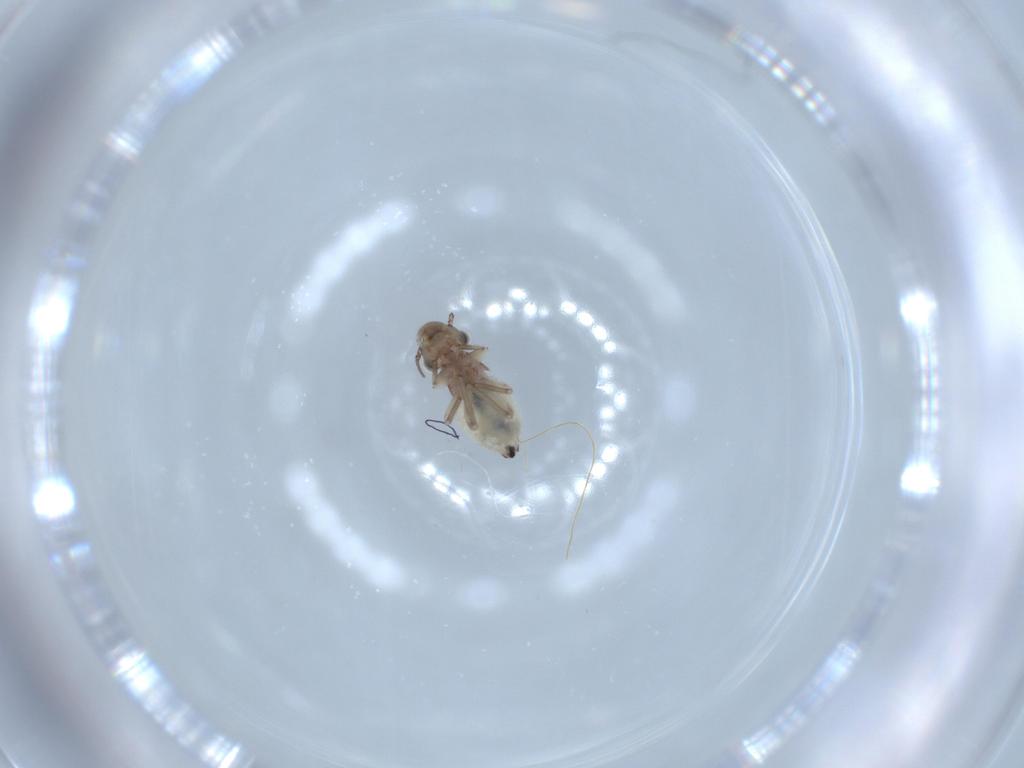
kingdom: Animalia
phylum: Arthropoda
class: Insecta
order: Psocodea
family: Lepidopsocidae
